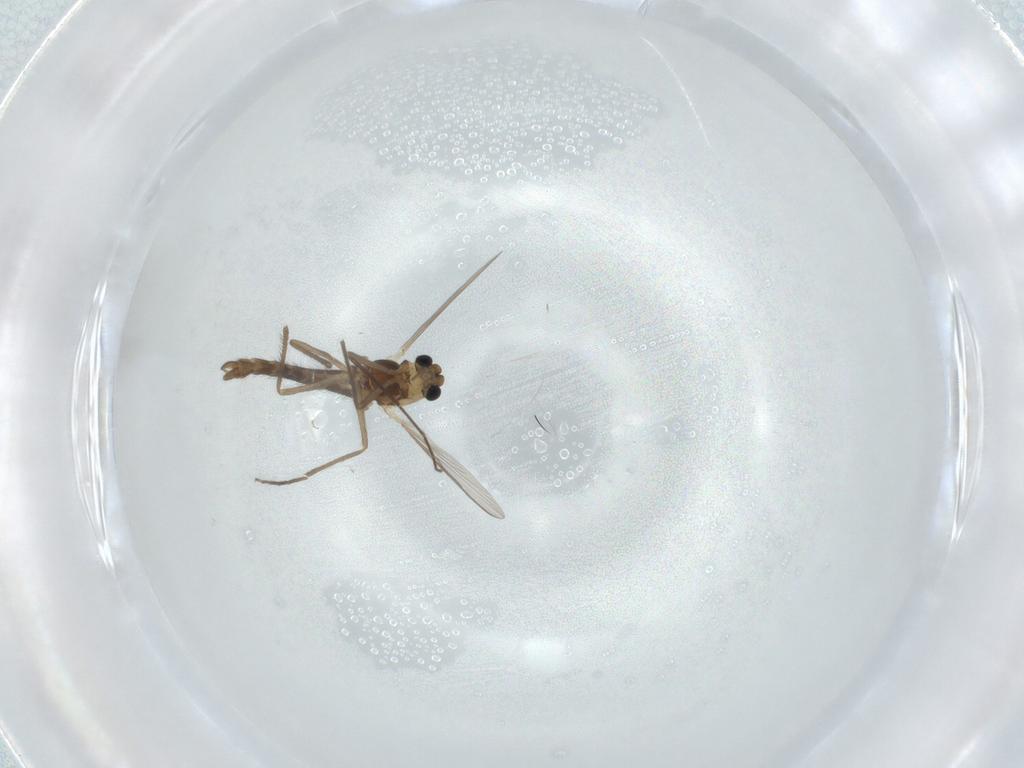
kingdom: Animalia
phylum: Arthropoda
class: Insecta
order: Diptera
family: Chironomidae
